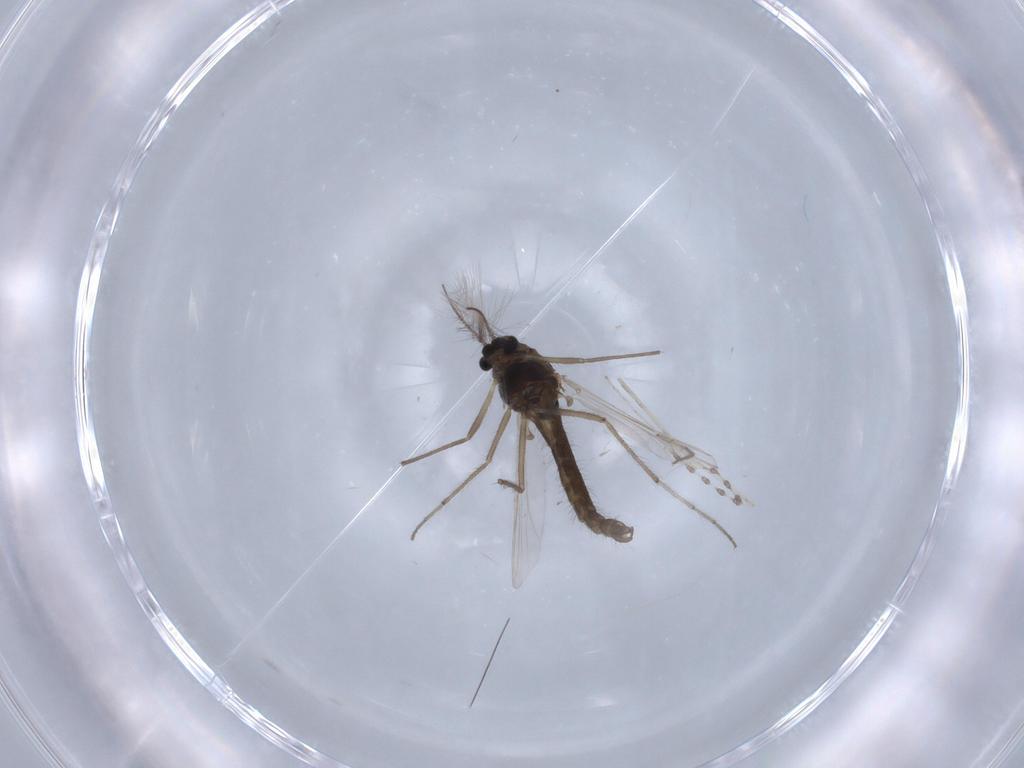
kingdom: Animalia
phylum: Arthropoda
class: Insecta
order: Diptera
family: Chironomidae
